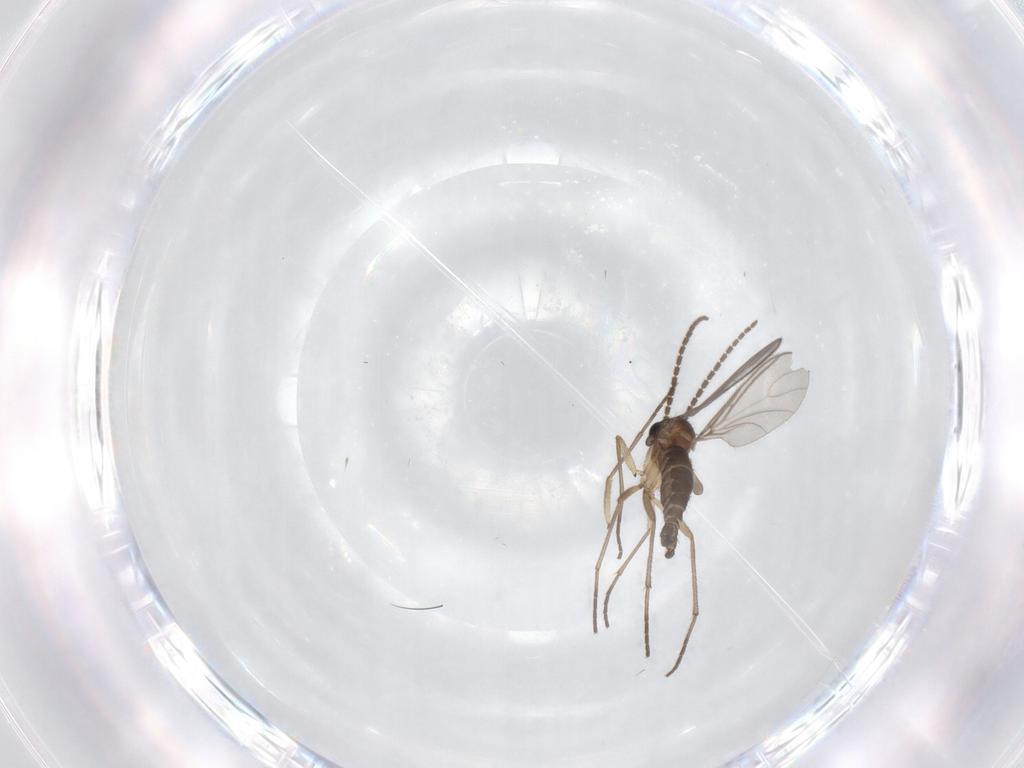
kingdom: Animalia
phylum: Arthropoda
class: Insecta
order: Diptera
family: Sciaridae
